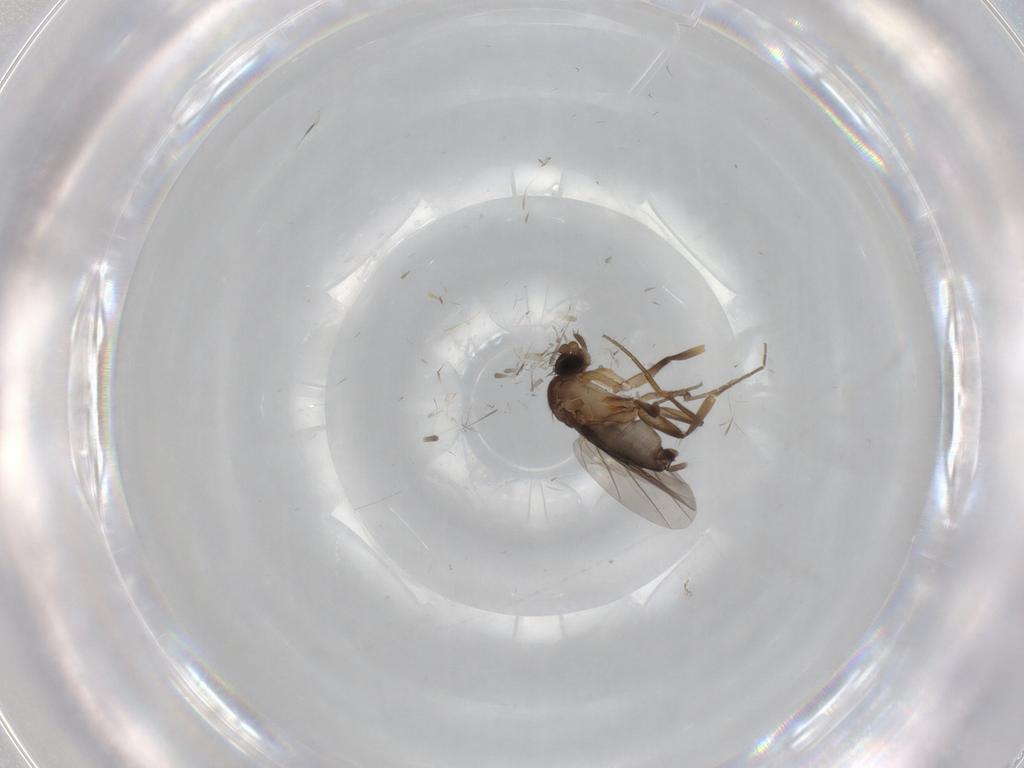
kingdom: Animalia
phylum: Arthropoda
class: Insecta
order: Diptera
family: Phoridae
